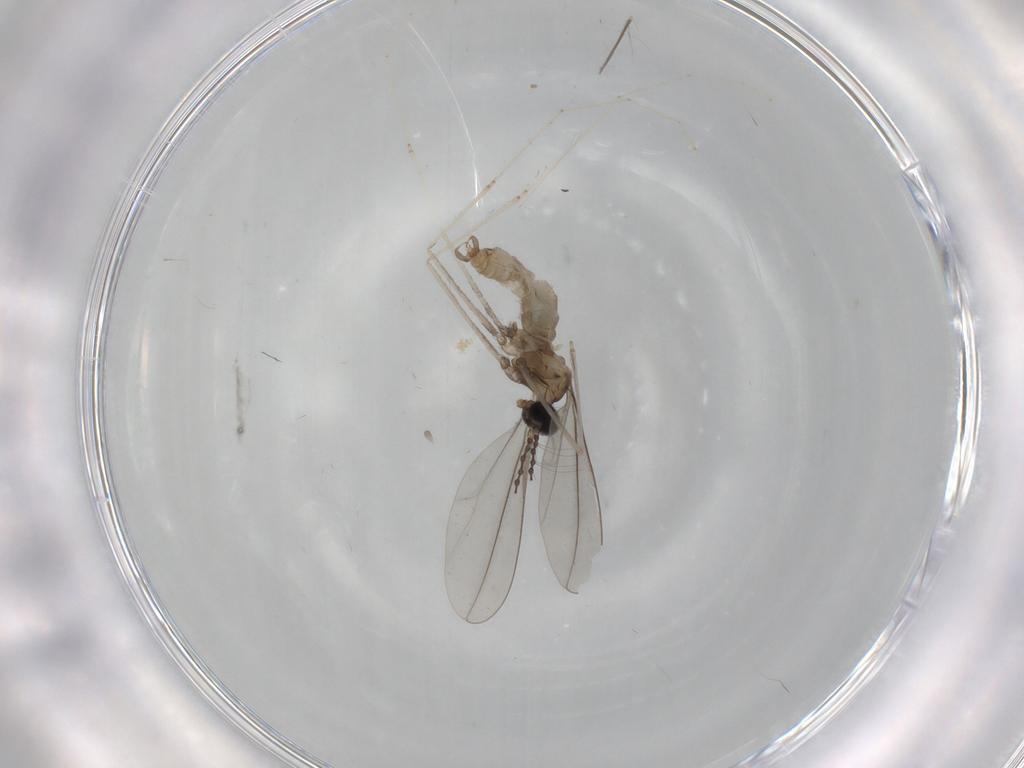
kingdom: Animalia
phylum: Arthropoda
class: Insecta
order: Diptera
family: Cecidomyiidae
